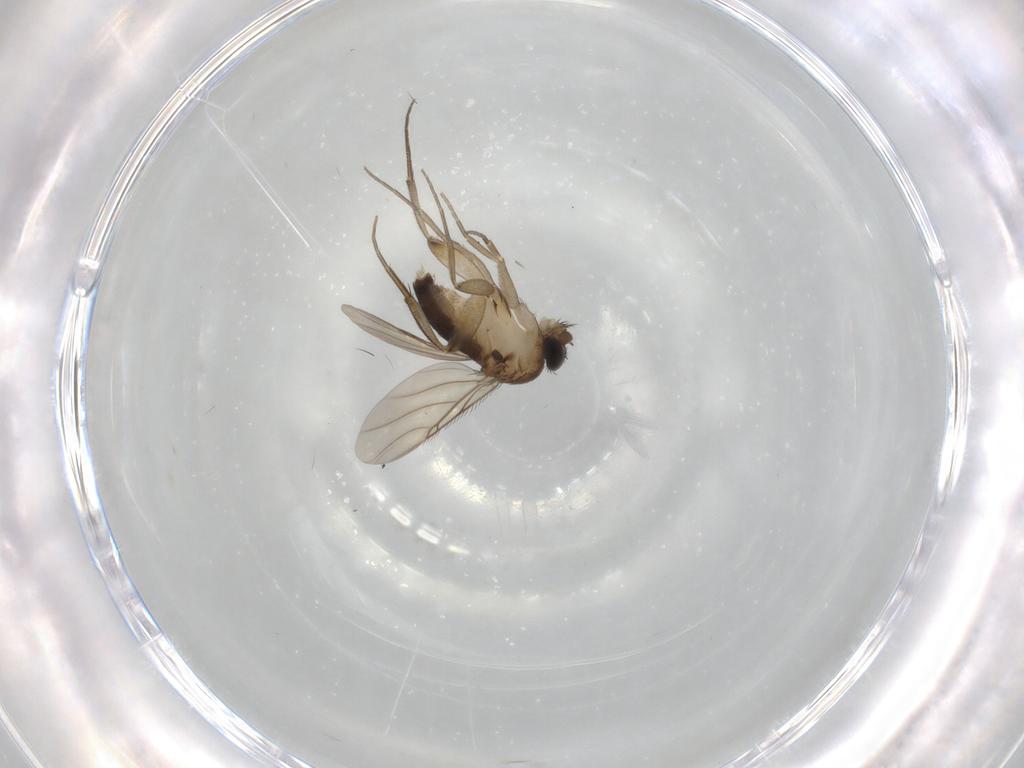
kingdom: Animalia
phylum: Arthropoda
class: Insecta
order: Diptera
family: Phoridae
